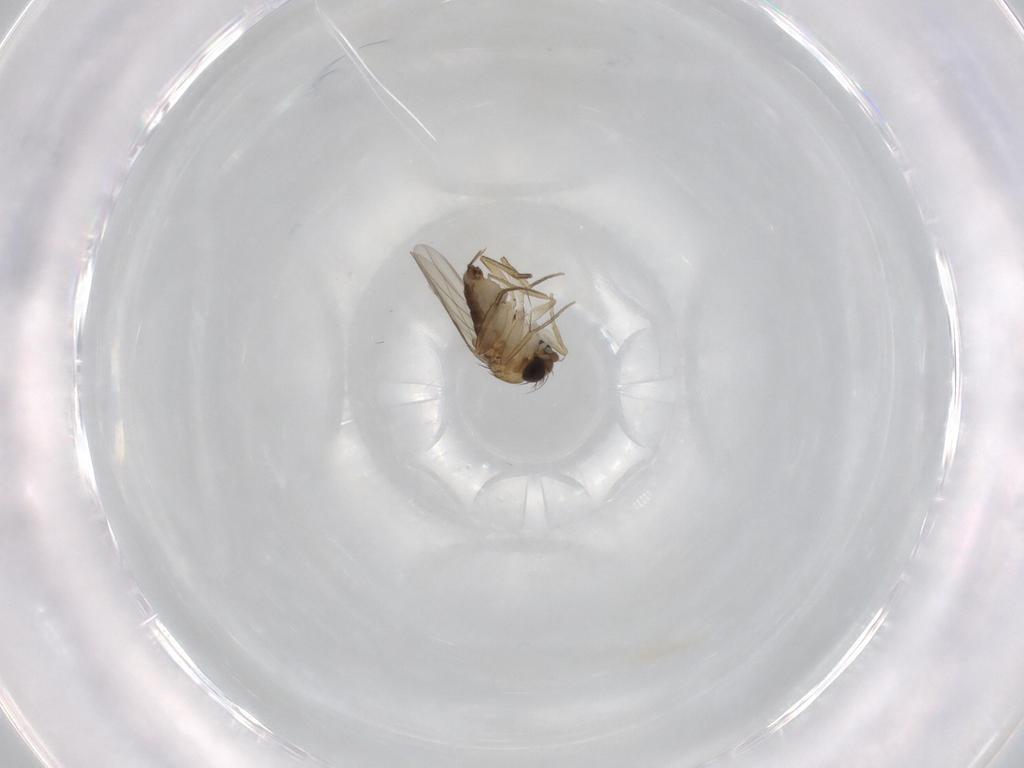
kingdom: Animalia
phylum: Arthropoda
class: Insecta
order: Diptera
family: Phoridae
